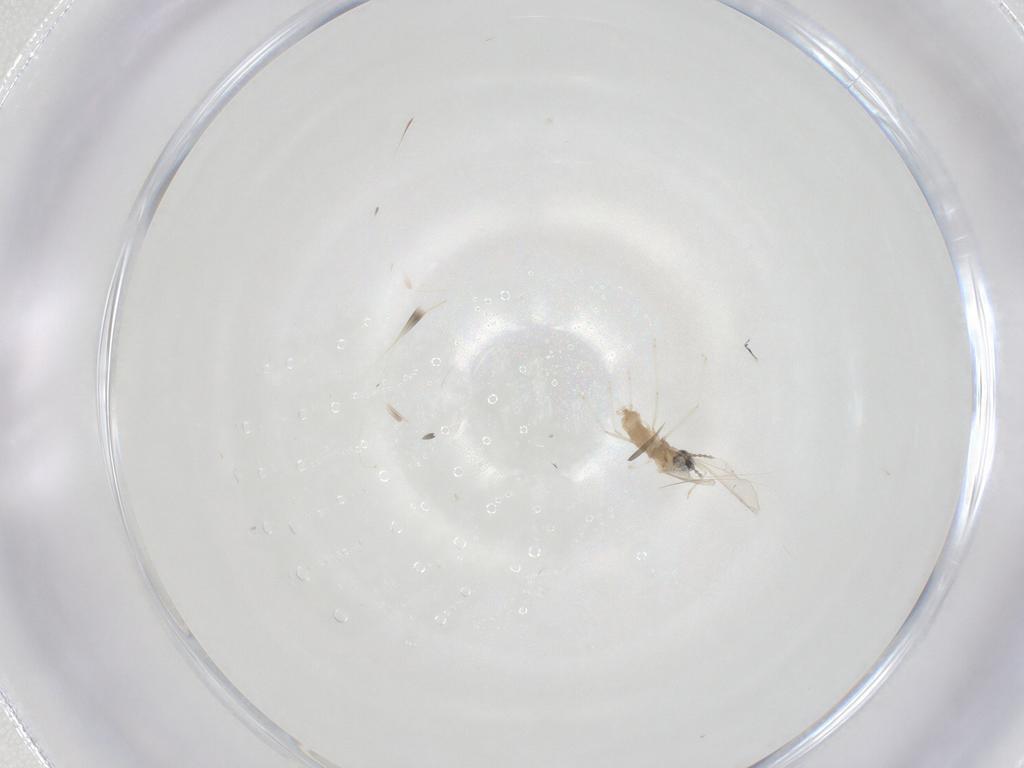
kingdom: Animalia
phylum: Arthropoda
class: Insecta
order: Diptera
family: Cecidomyiidae
